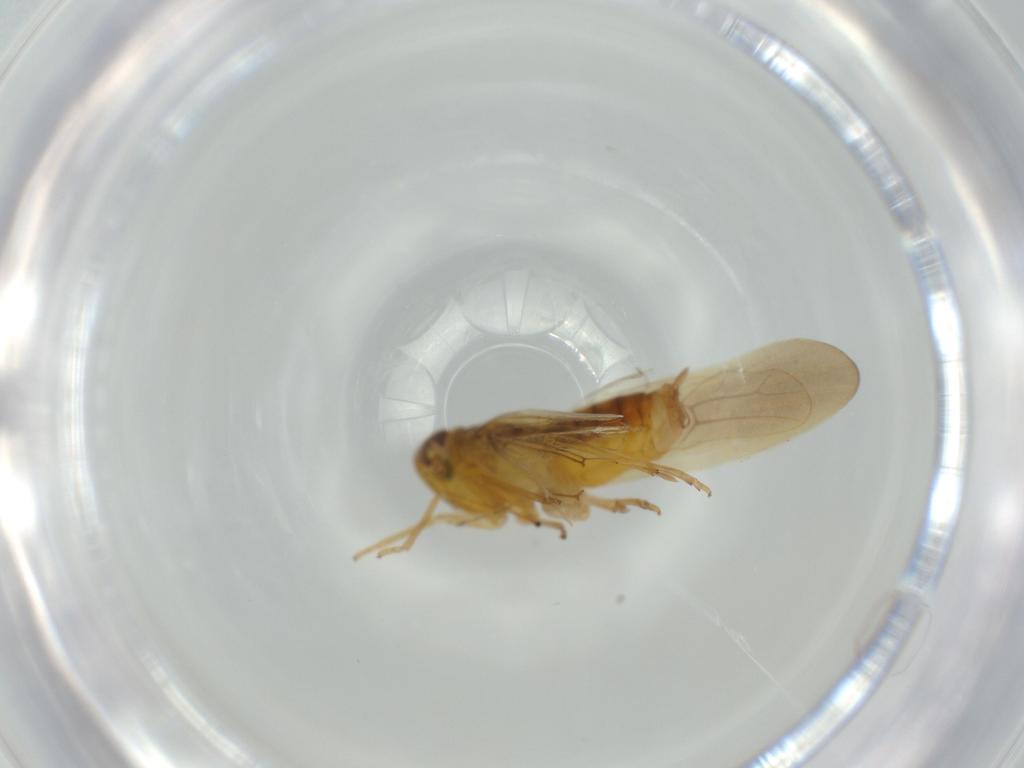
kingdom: Animalia
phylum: Arthropoda
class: Insecta
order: Hemiptera
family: Delphacidae
